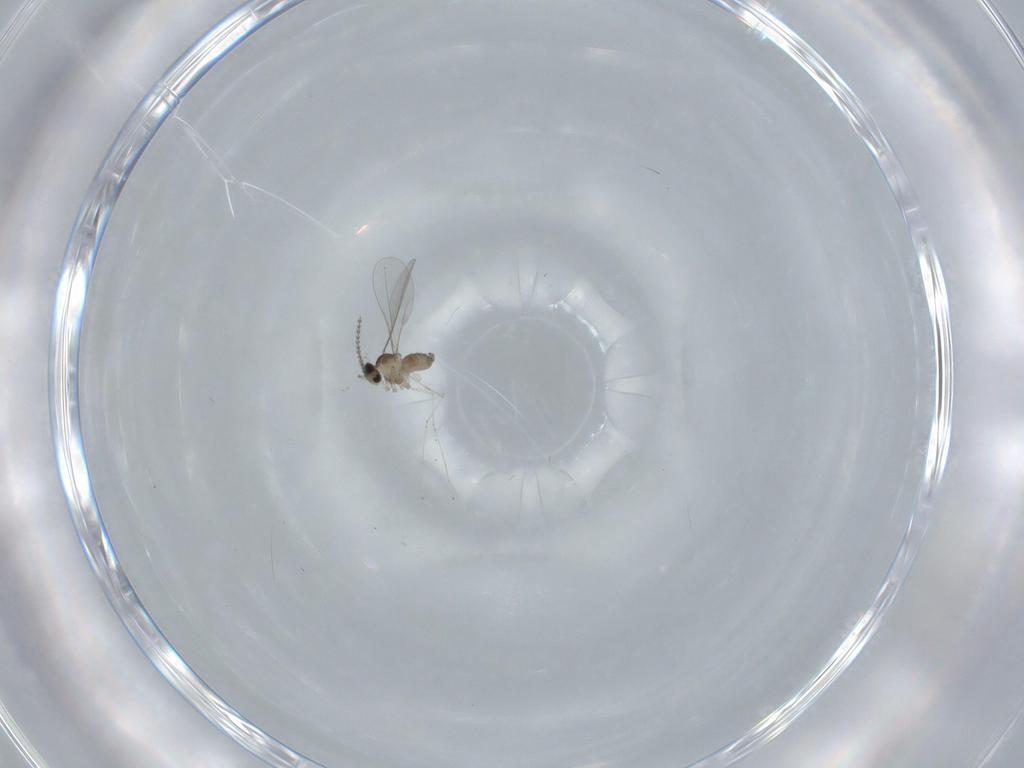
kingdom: Animalia
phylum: Arthropoda
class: Insecta
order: Diptera
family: Cecidomyiidae
